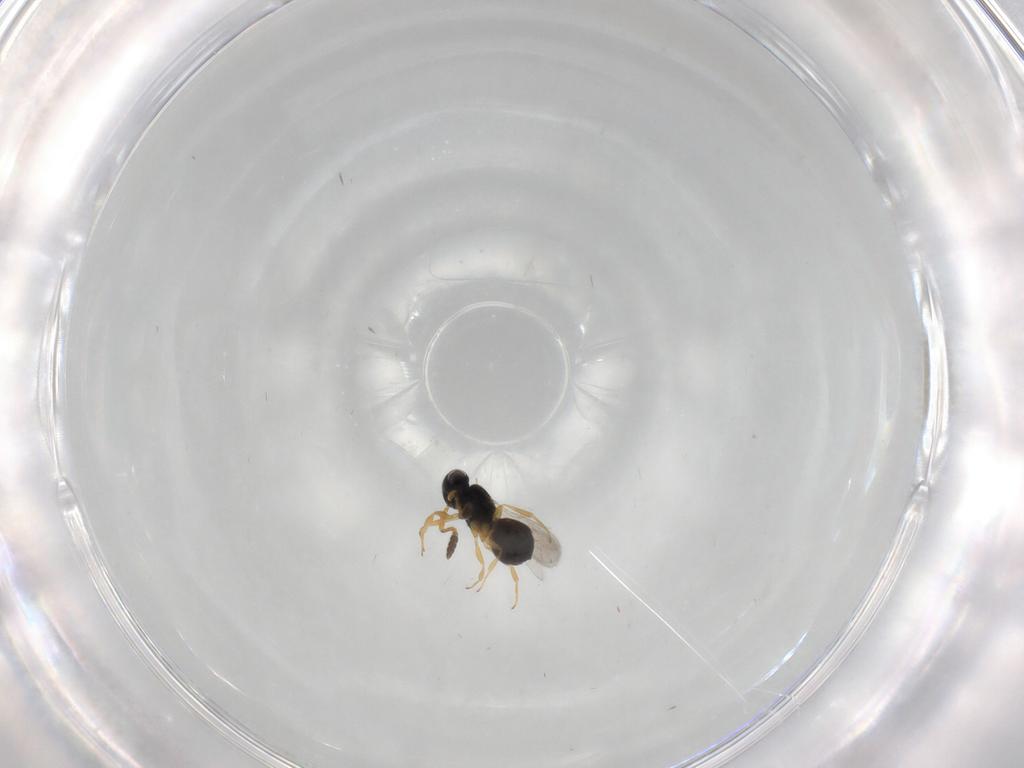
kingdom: Animalia
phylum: Arthropoda
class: Insecta
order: Hymenoptera
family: Scelionidae
